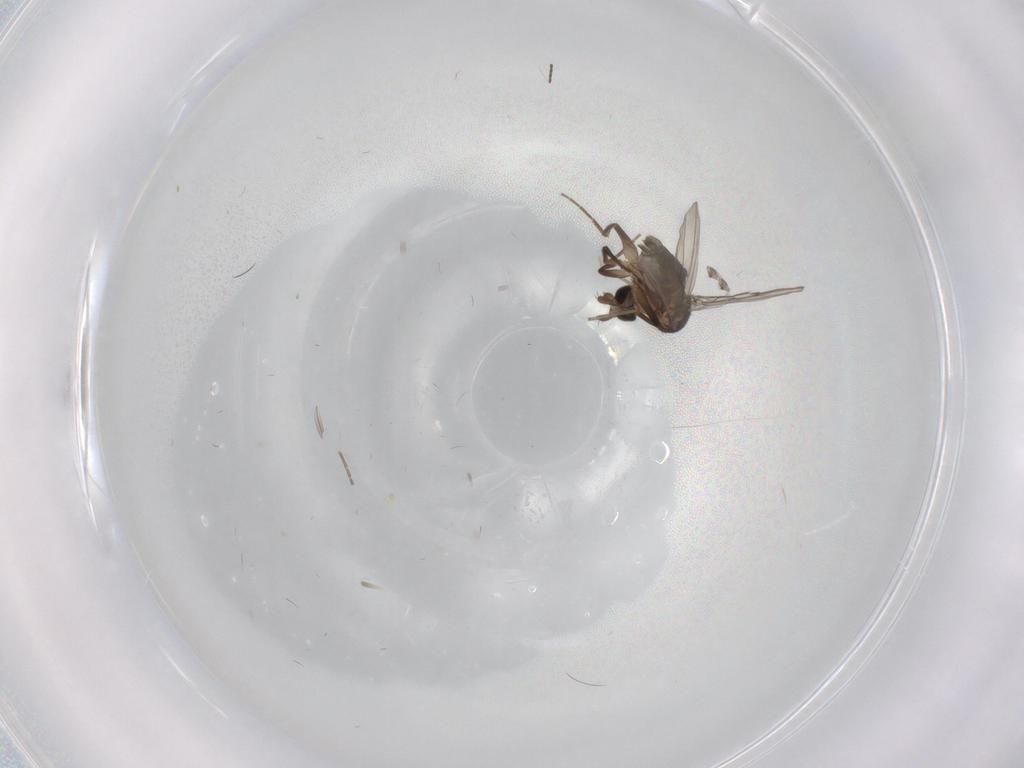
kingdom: Animalia
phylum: Arthropoda
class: Insecta
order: Diptera
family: Phoridae
